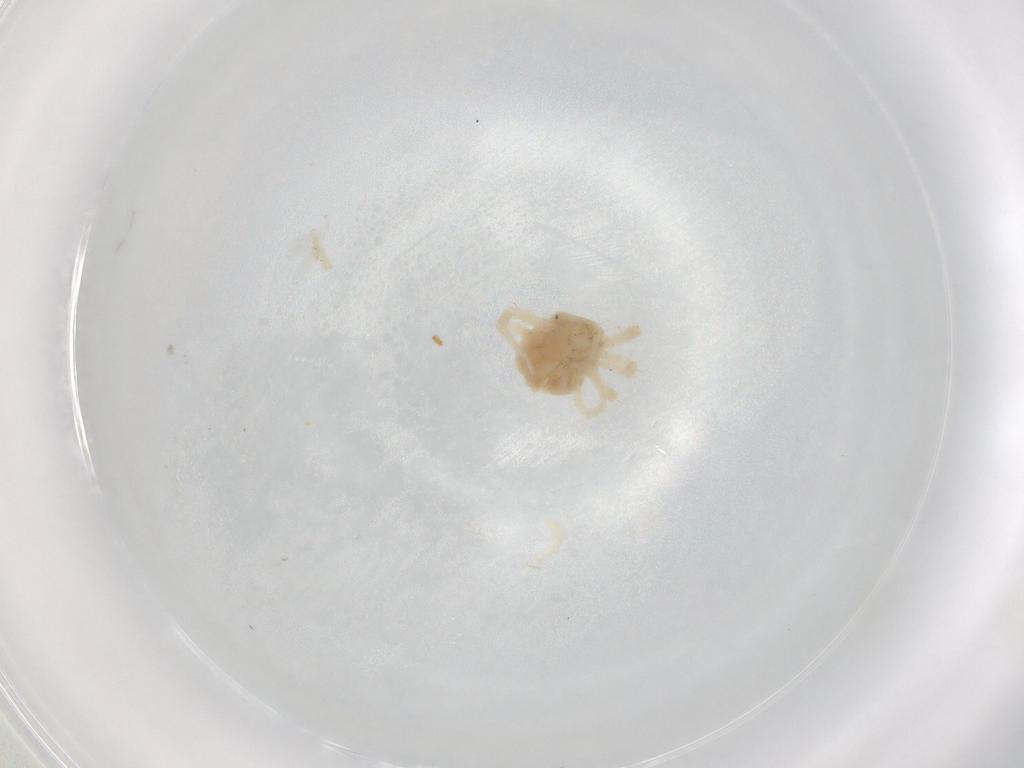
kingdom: Animalia
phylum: Arthropoda
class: Arachnida
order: Trombidiformes
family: Anystidae
